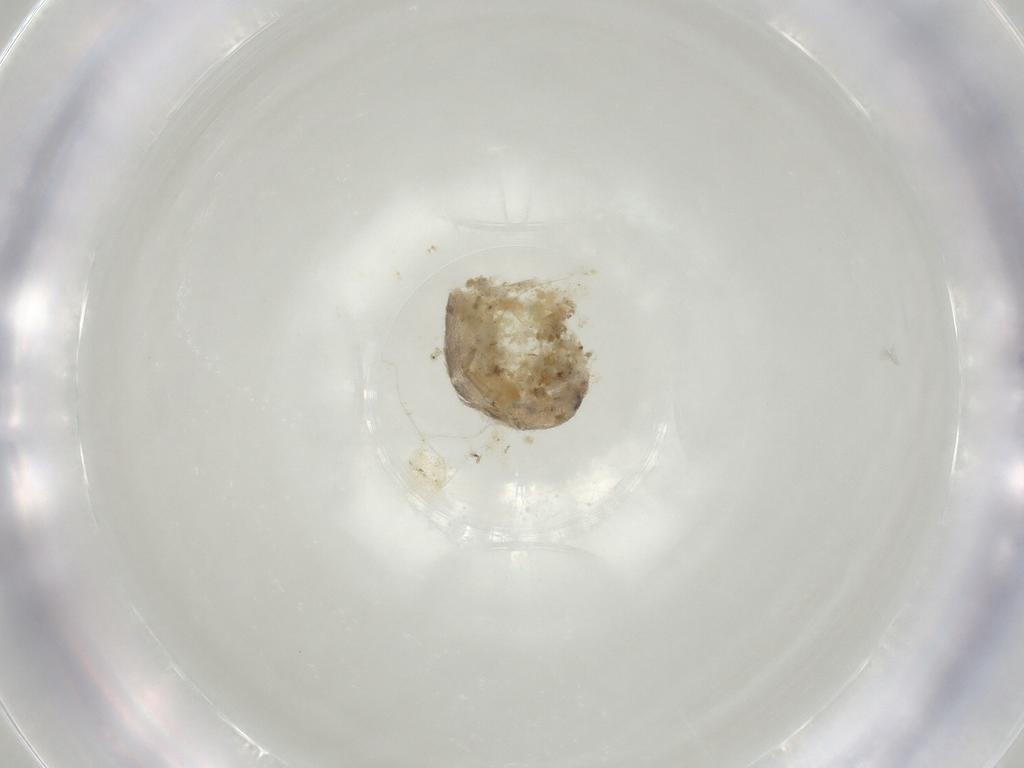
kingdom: Animalia
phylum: Arthropoda
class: Collembola
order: Entomobryomorpha
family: Entomobryidae
